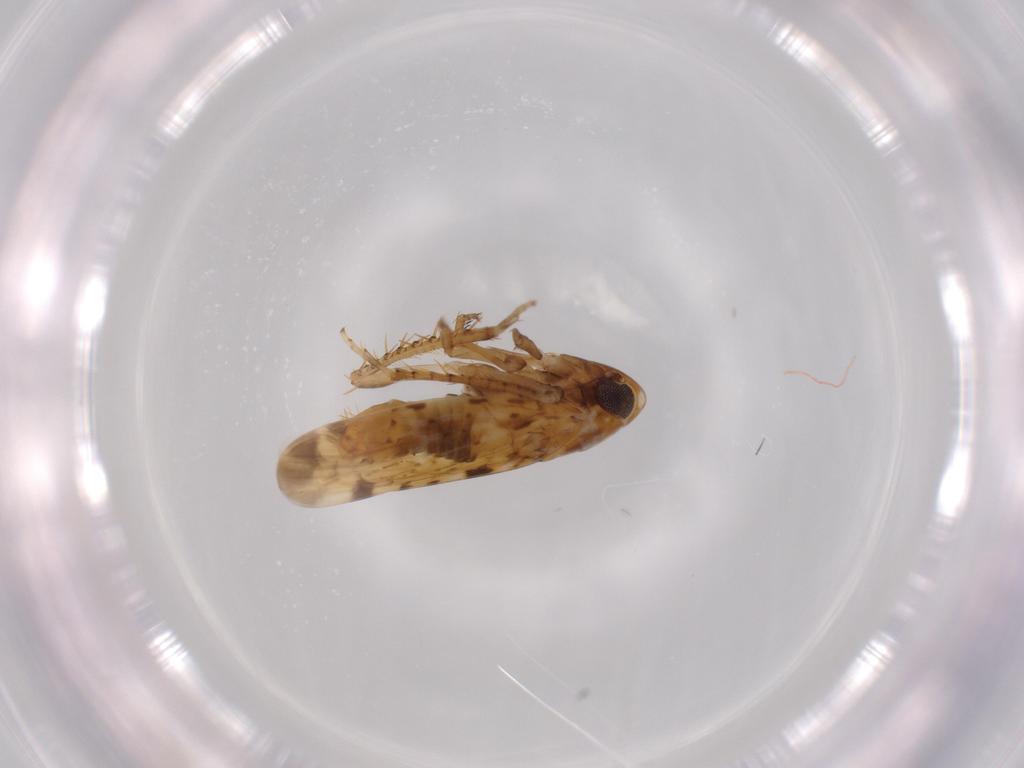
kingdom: Animalia
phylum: Arthropoda
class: Insecta
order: Hemiptera
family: Cicadellidae
